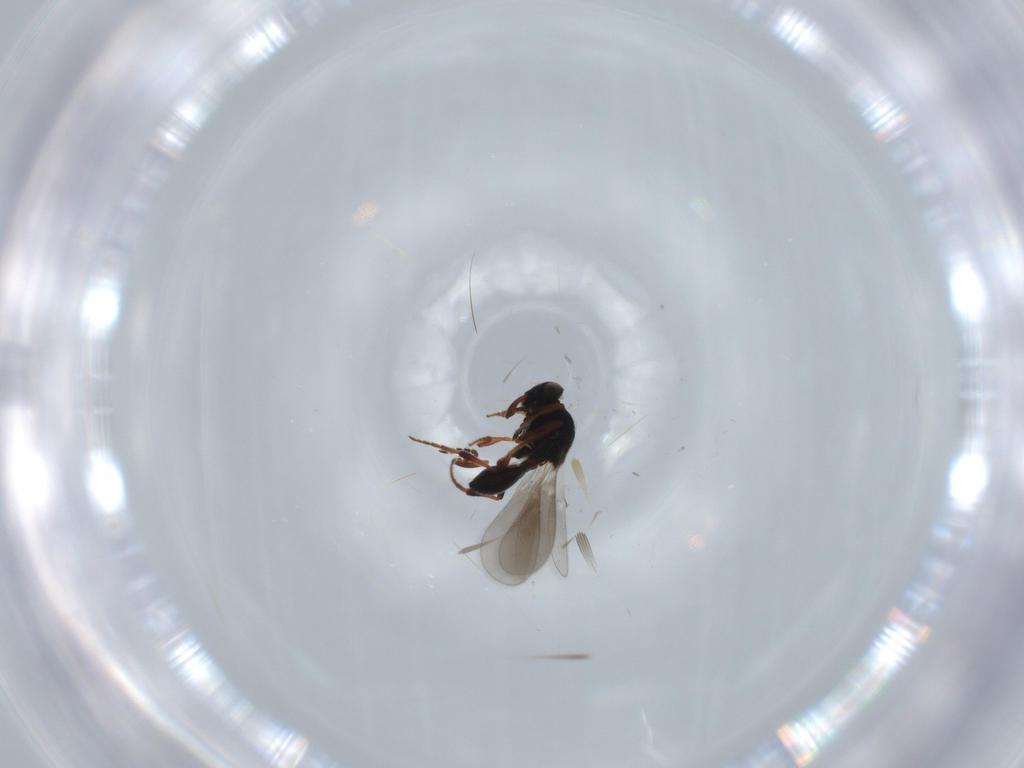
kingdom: Animalia
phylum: Arthropoda
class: Insecta
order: Hymenoptera
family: Platygastridae
